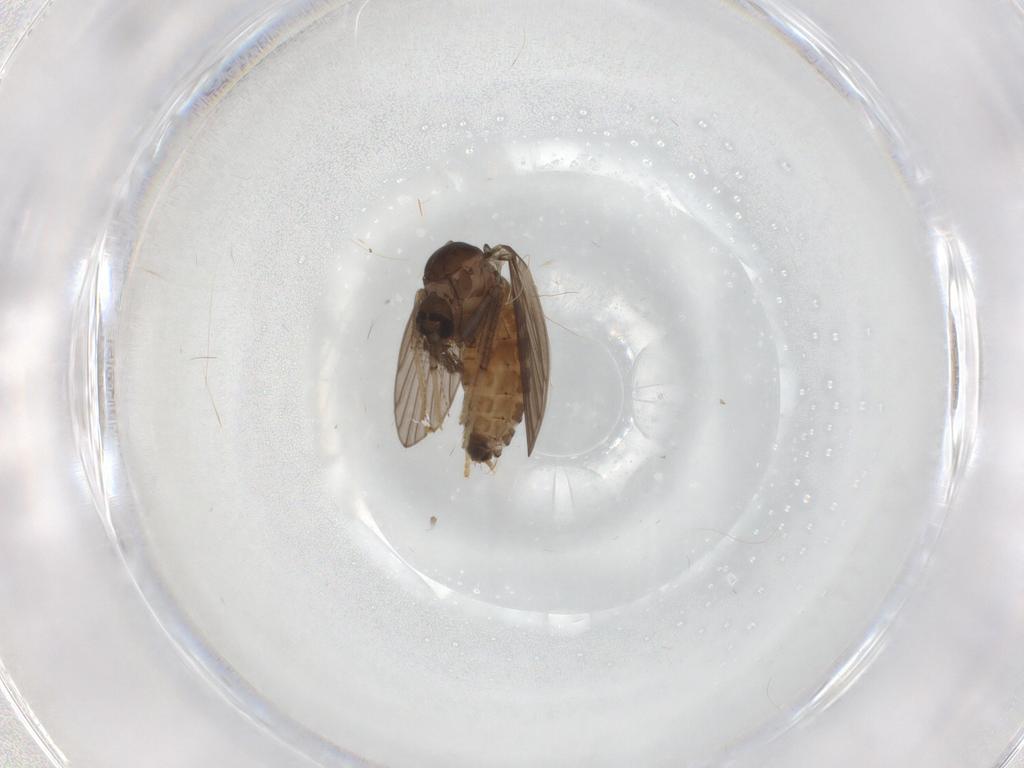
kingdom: Animalia
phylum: Arthropoda
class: Insecta
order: Diptera
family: Psychodidae
